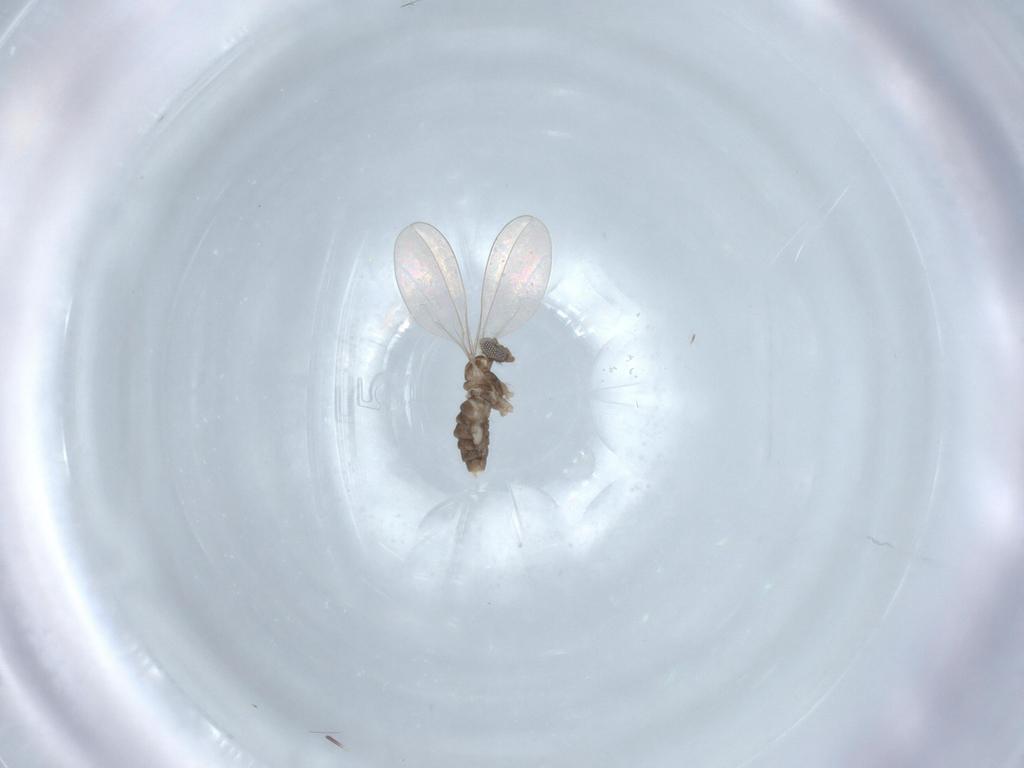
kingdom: Animalia
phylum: Arthropoda
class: Insecta
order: Diptera
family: Cecidomyiidae
